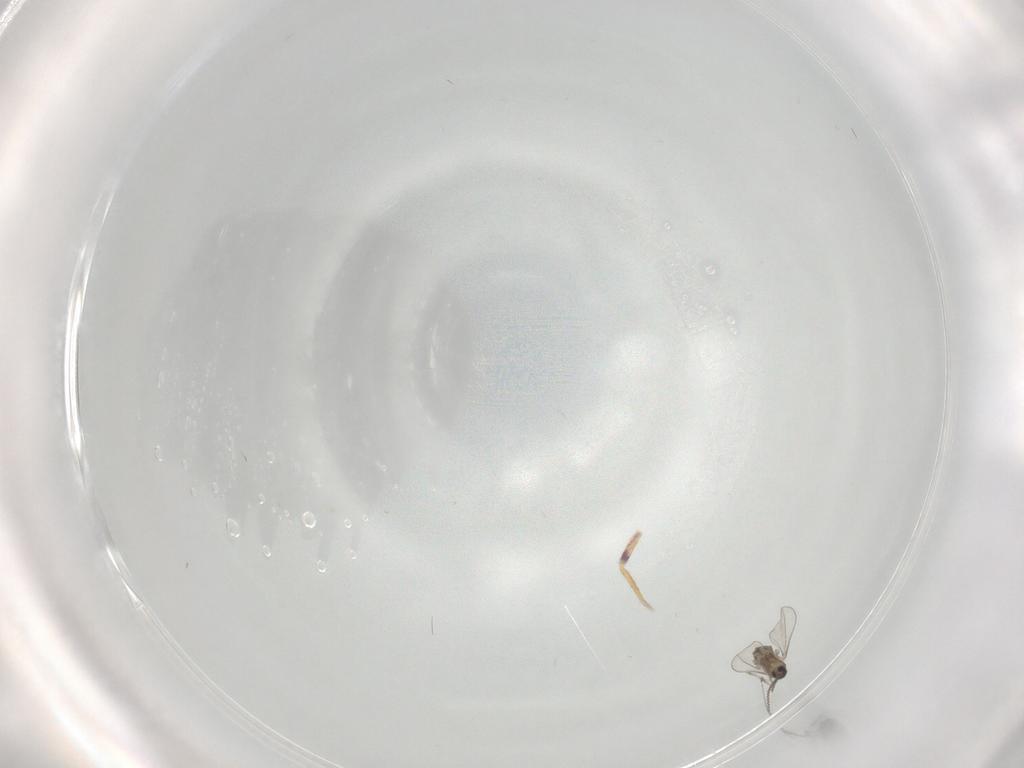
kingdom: Animalia
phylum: Arthropoda
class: Insecta
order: Diptera
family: Cecidomyiidae
